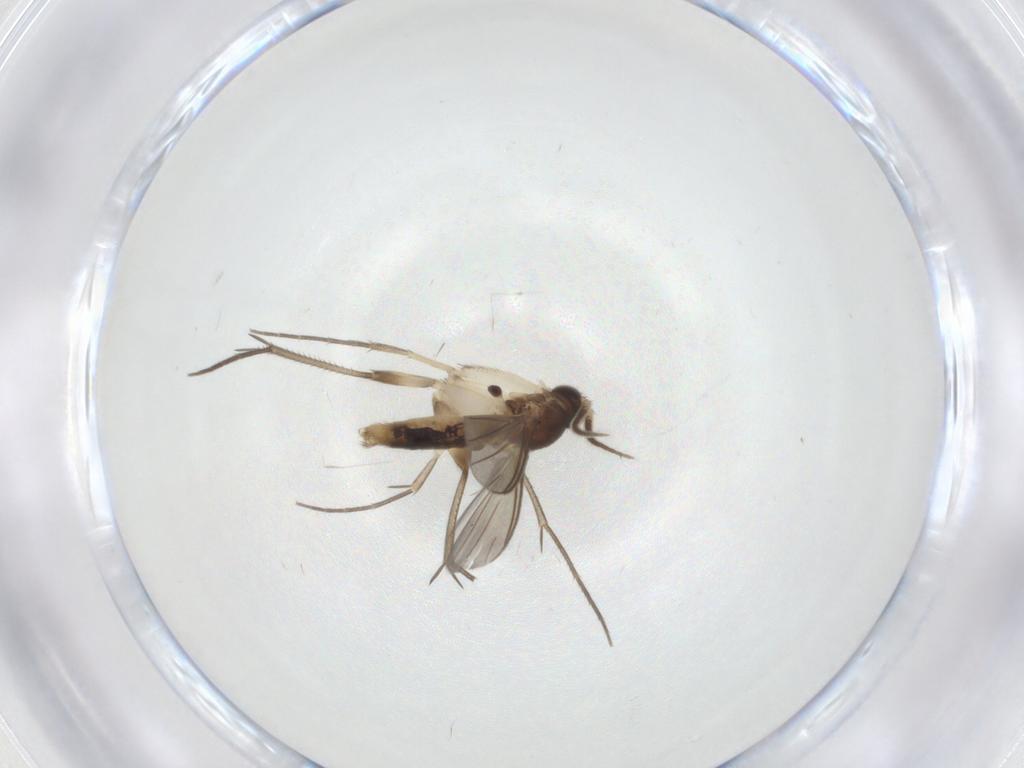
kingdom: Animalia
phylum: Arthropoda
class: Insecta
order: Diptera
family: Mycetophilidae
